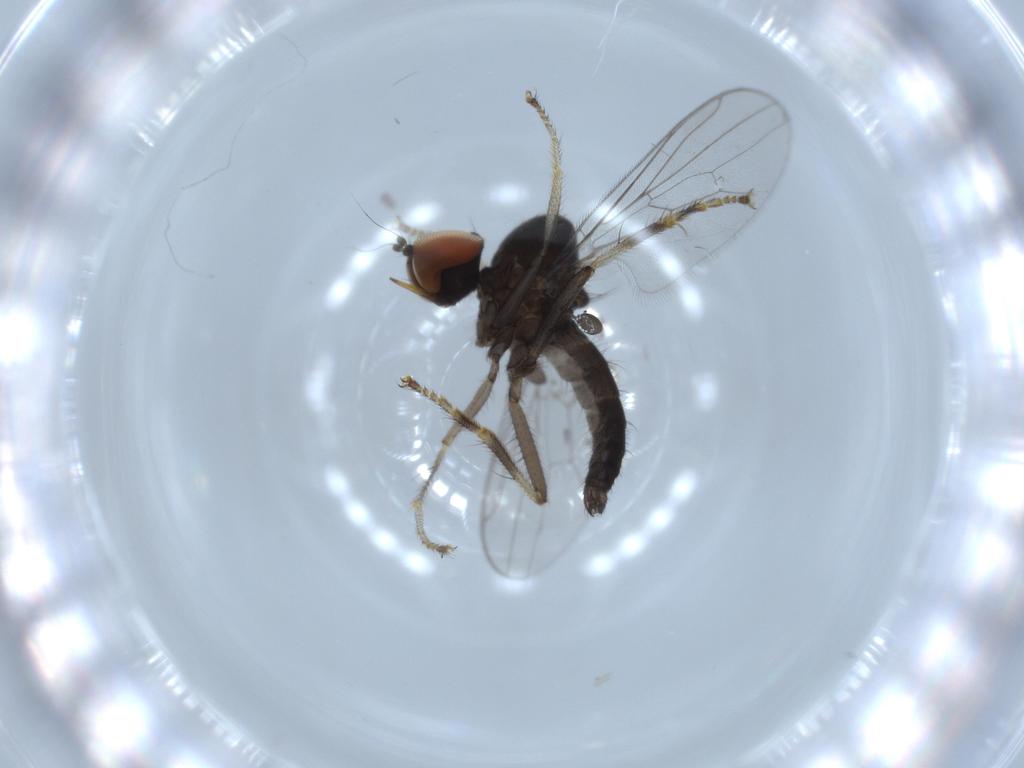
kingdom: Animalia
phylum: Arthropoda
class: Insecta
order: Diptera
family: Hybotidae
